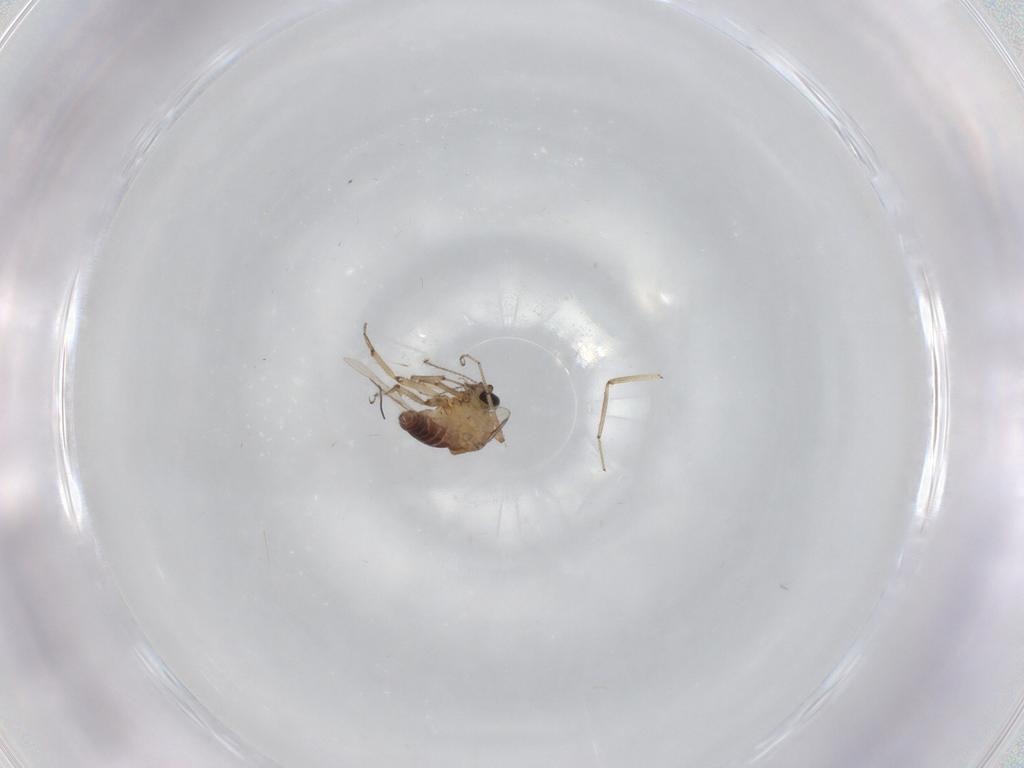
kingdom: Animalia
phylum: Arthropoda
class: Insecta
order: Diptera
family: Ceratopogonidae
